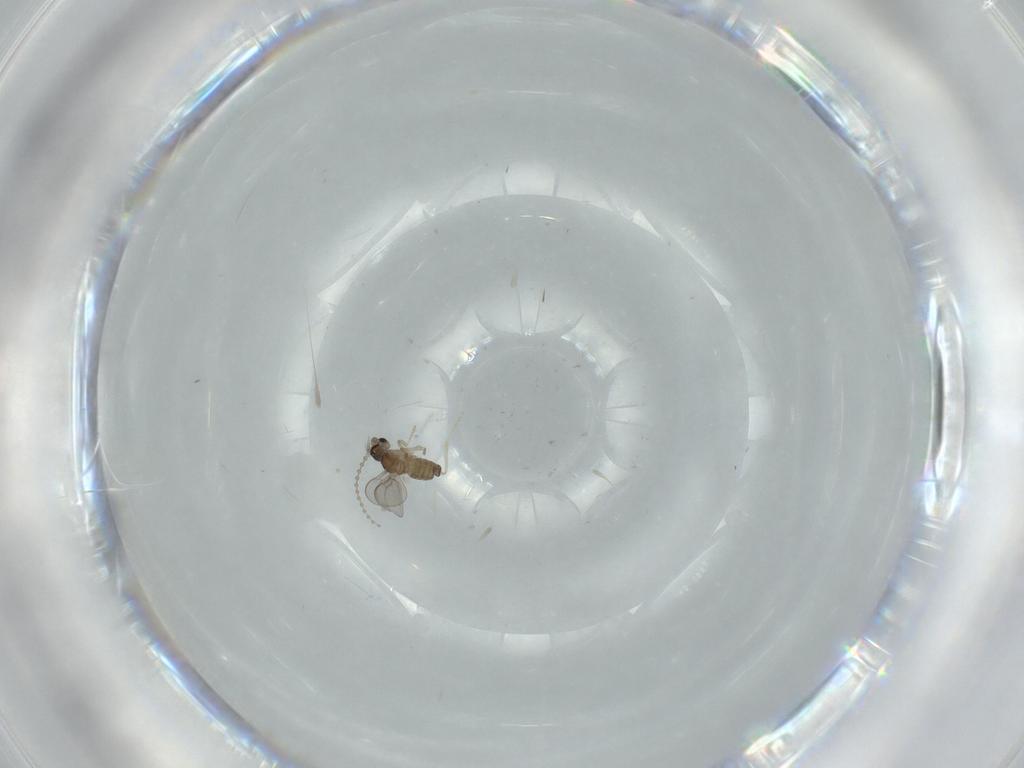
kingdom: Animalia
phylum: Arthropoda
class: Insecta
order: Diptera
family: Cecidomyiidae
